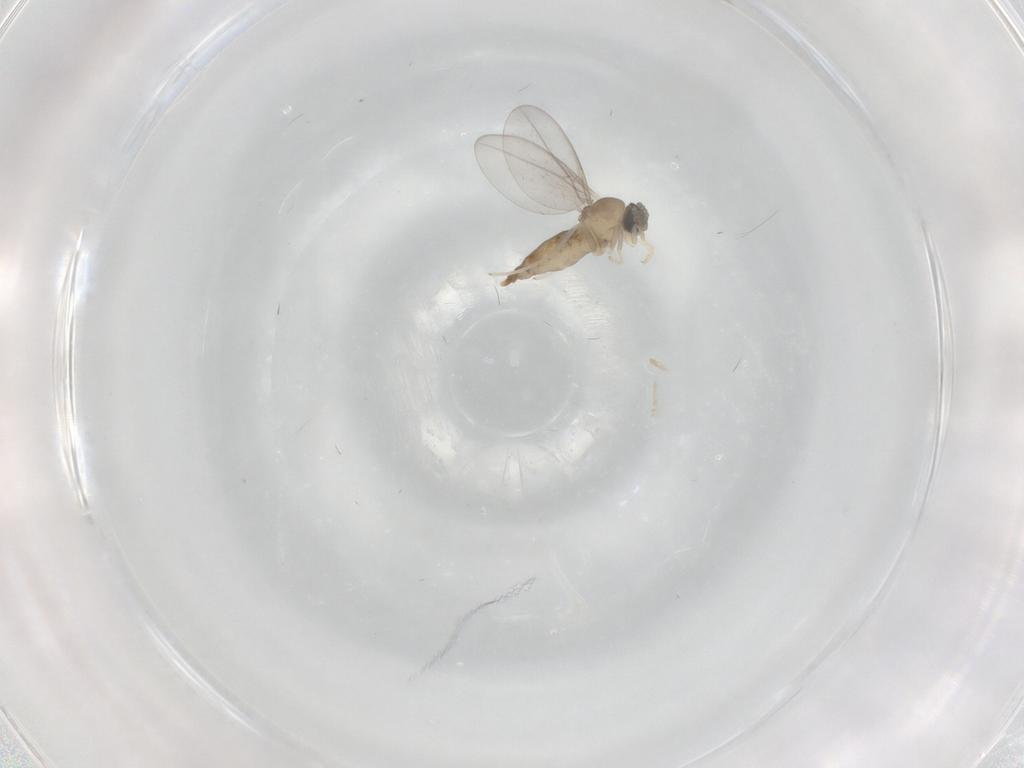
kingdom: Animalia
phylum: Arthropoda
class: Insecta
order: Diptera
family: Cecidomyiidae
